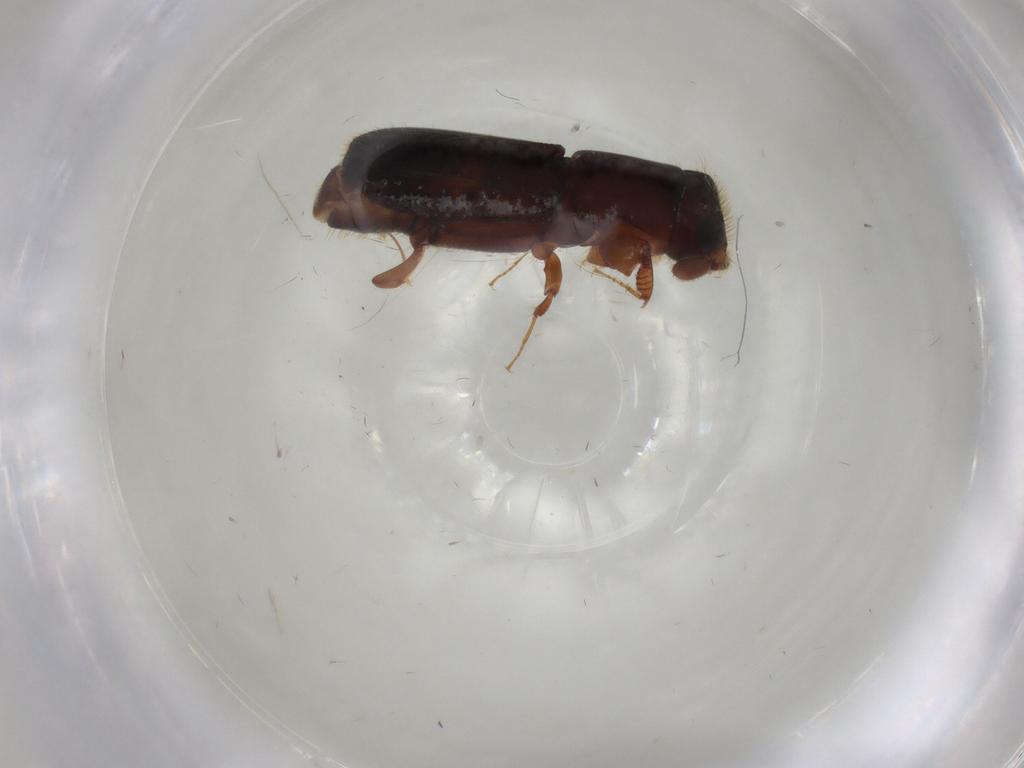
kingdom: Animalia
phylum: Arthropoda
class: Insecta
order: Coleoptera
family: Curculionidae
